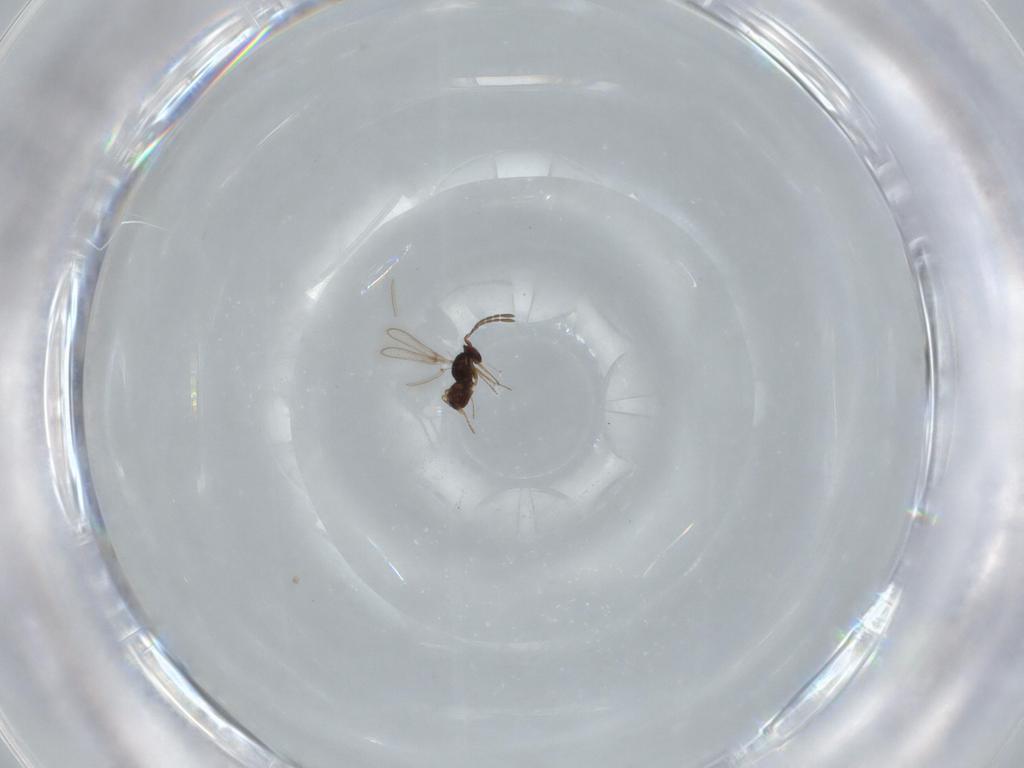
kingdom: Animalia
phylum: Arthropoda
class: Insecta
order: Hymenoptera
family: Mymaridae
